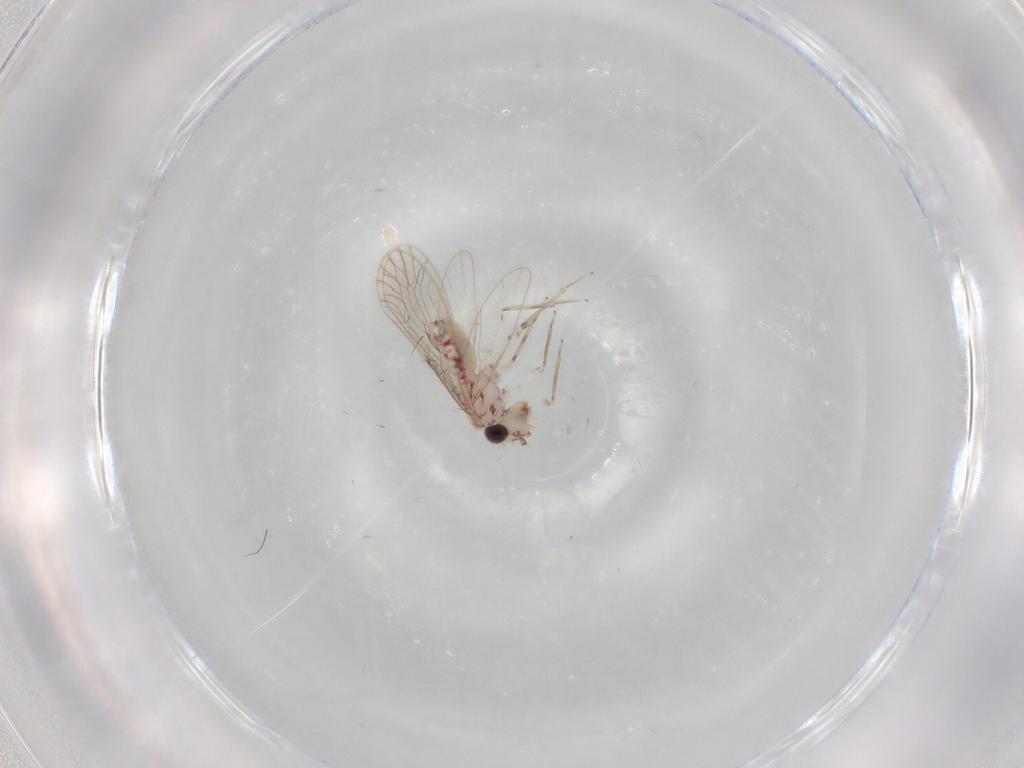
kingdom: Animalia
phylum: Arthropoda
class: Insecta
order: Psocodea
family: Caeciliusidae
